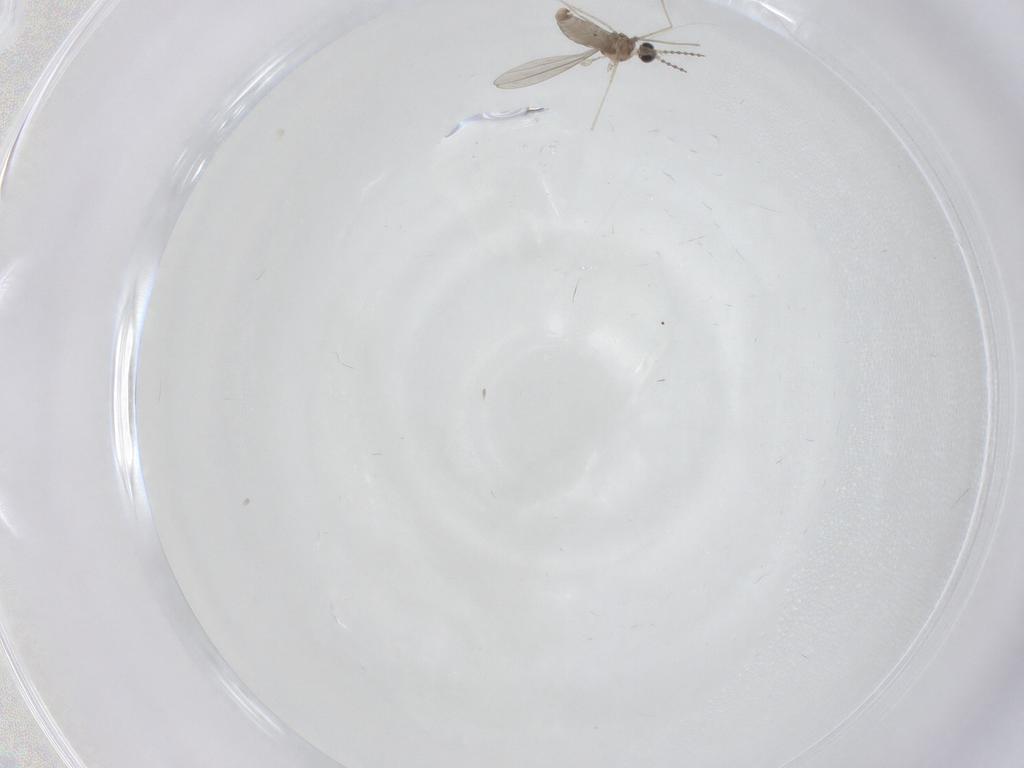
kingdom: Animalia
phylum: Arthropoda
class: Insecta
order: Diptera
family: Cecidomyiidae
